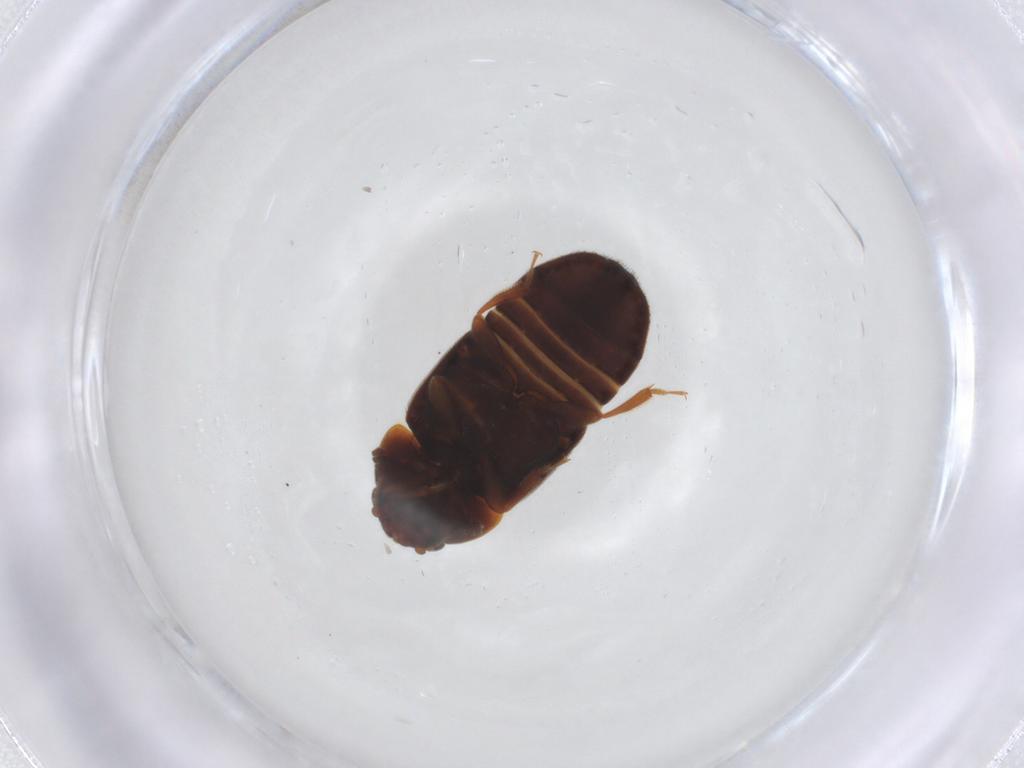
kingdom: Animalia
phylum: Arthropoda
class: Insecta
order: Coleoptera
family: Nitidulidae
